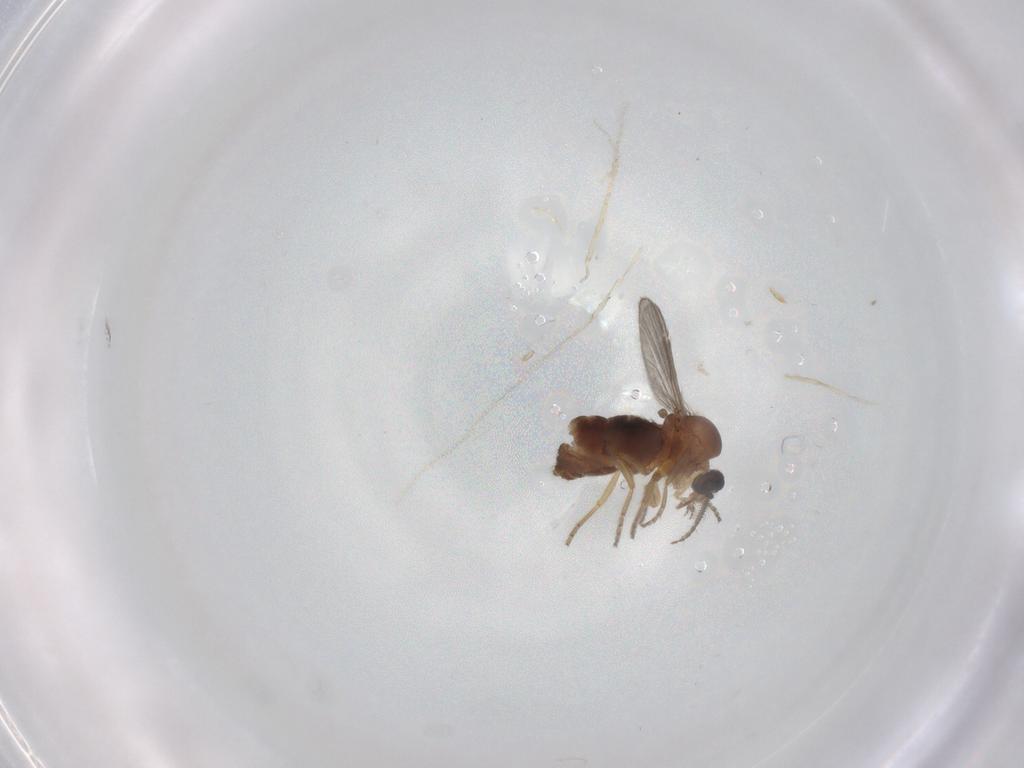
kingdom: Animalia
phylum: Arthropoda
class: Insecta
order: Diptera
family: Ceratopogonidae
